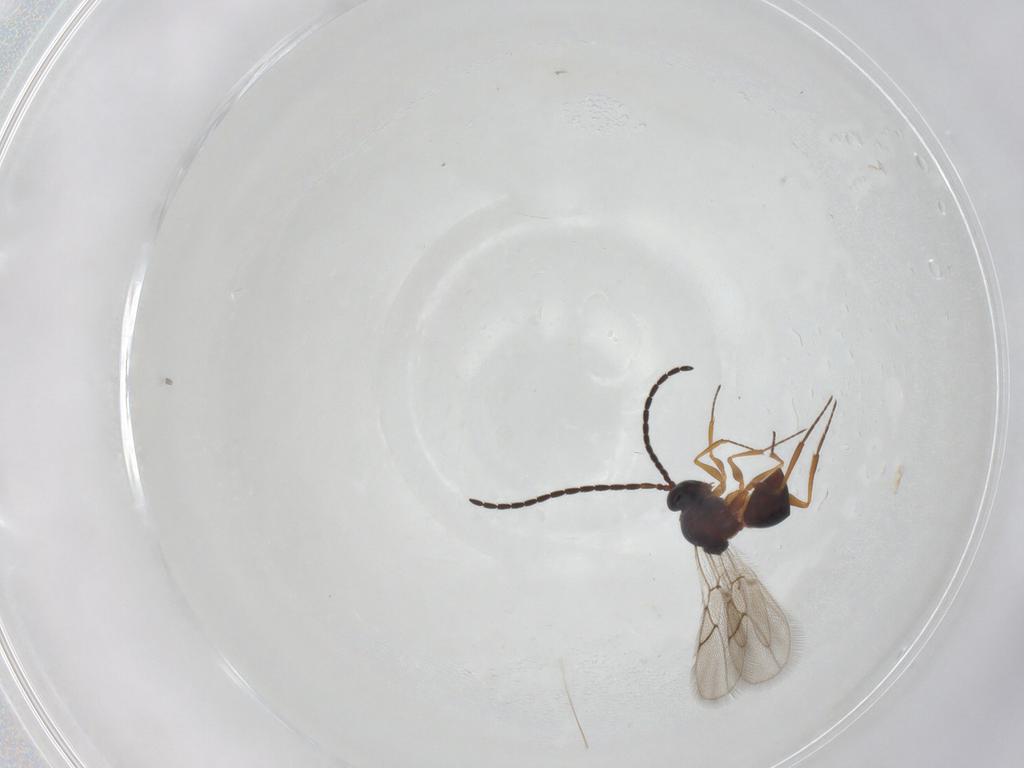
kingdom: Animalia
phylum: Arthropoda
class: Insecta
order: Hymenoptera
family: Figitidae
